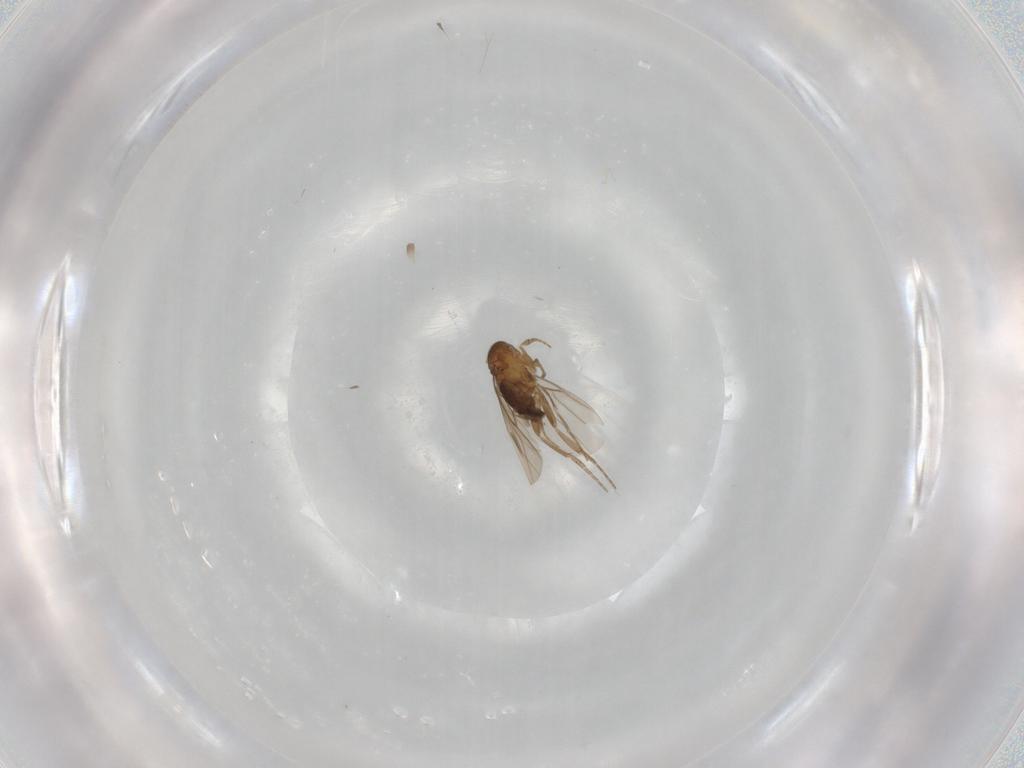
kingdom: Animalia
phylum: Arthropoda
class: Insecta
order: Diptera
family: Phoridae
